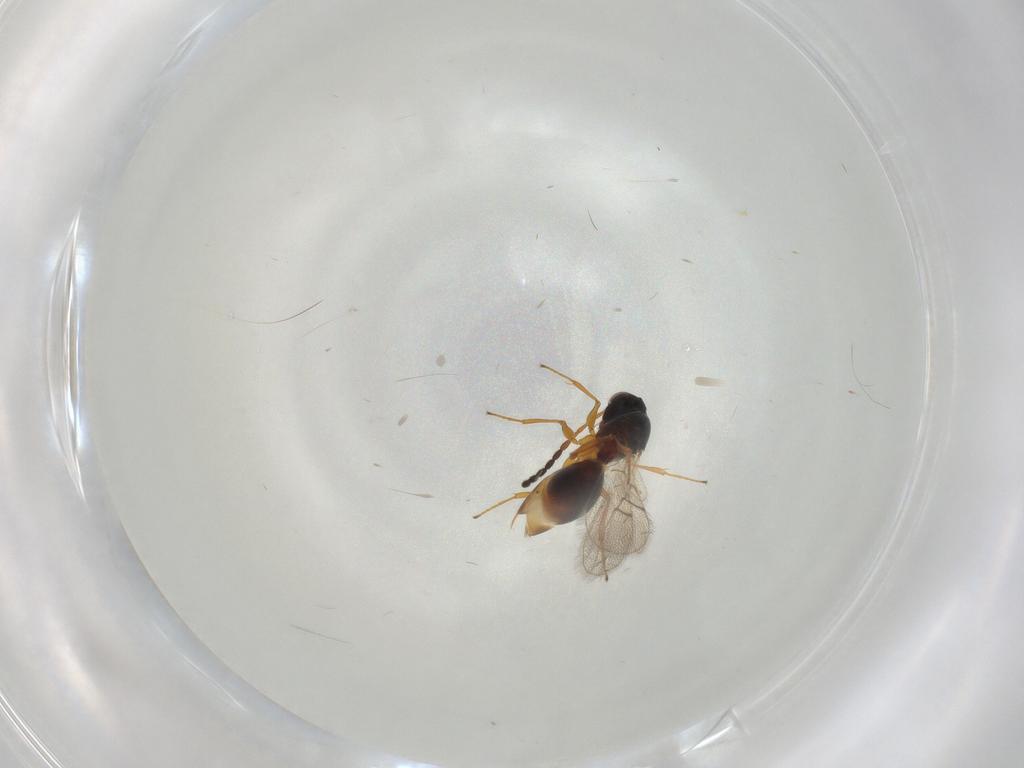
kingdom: Animalia
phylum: Arthropoda
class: Insecta
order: Hymenoptera
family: Figitidae
